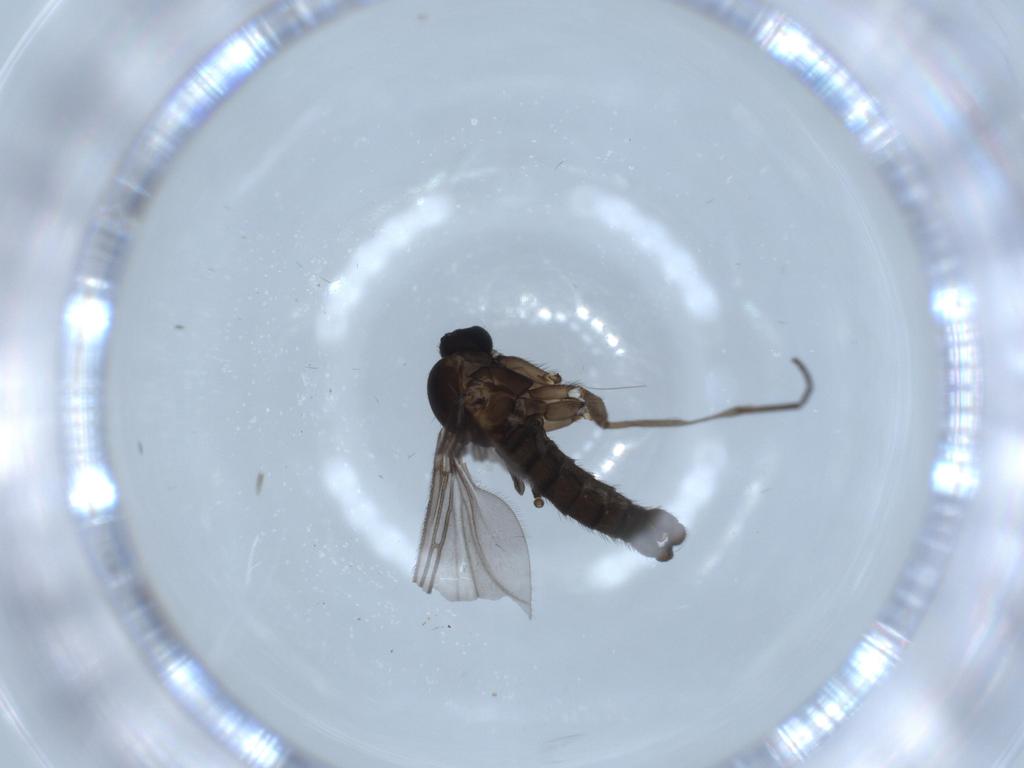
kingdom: Animalia
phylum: Arthropoda
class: Insecta
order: Diptera
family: Sciaridae
